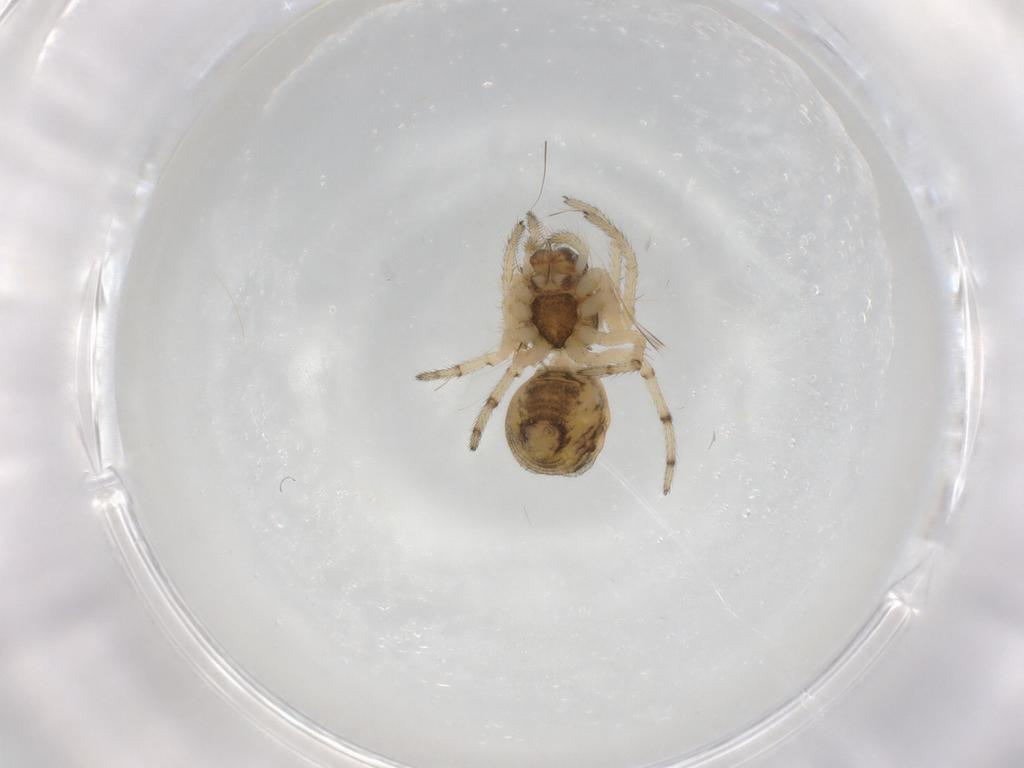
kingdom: Animalia
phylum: Arthropoda
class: Arachnida
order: Araneae
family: Araneidae
